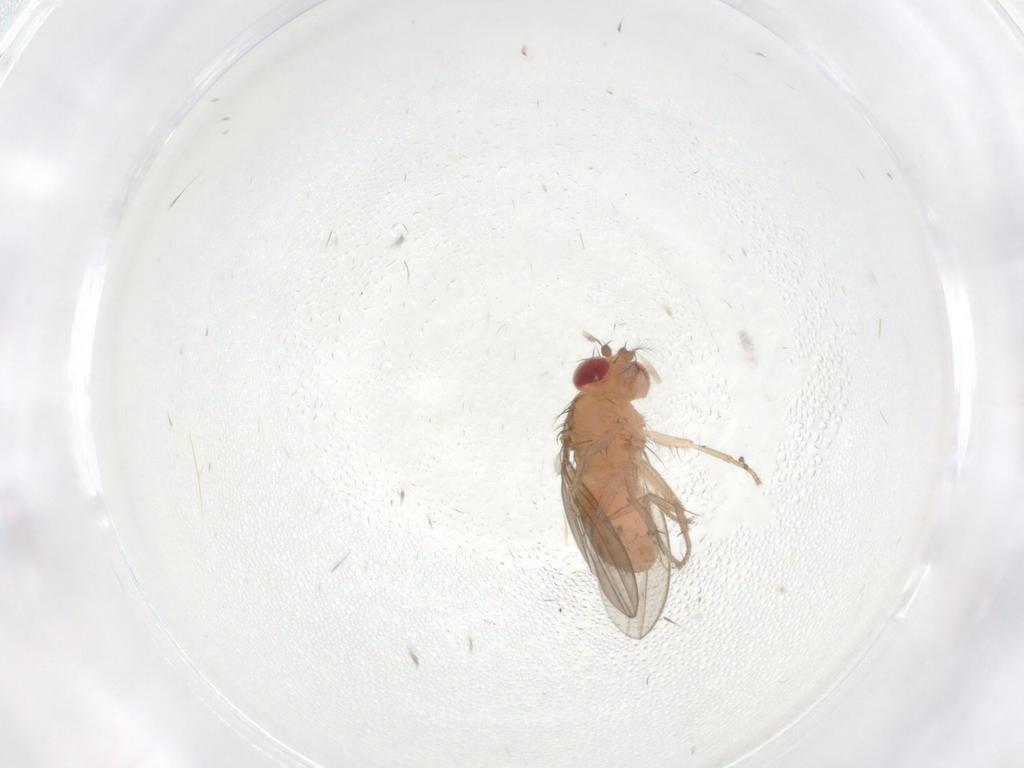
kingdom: Animalia
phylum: Arthropoda
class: Insecta
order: Diptera
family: Drosophilidae
